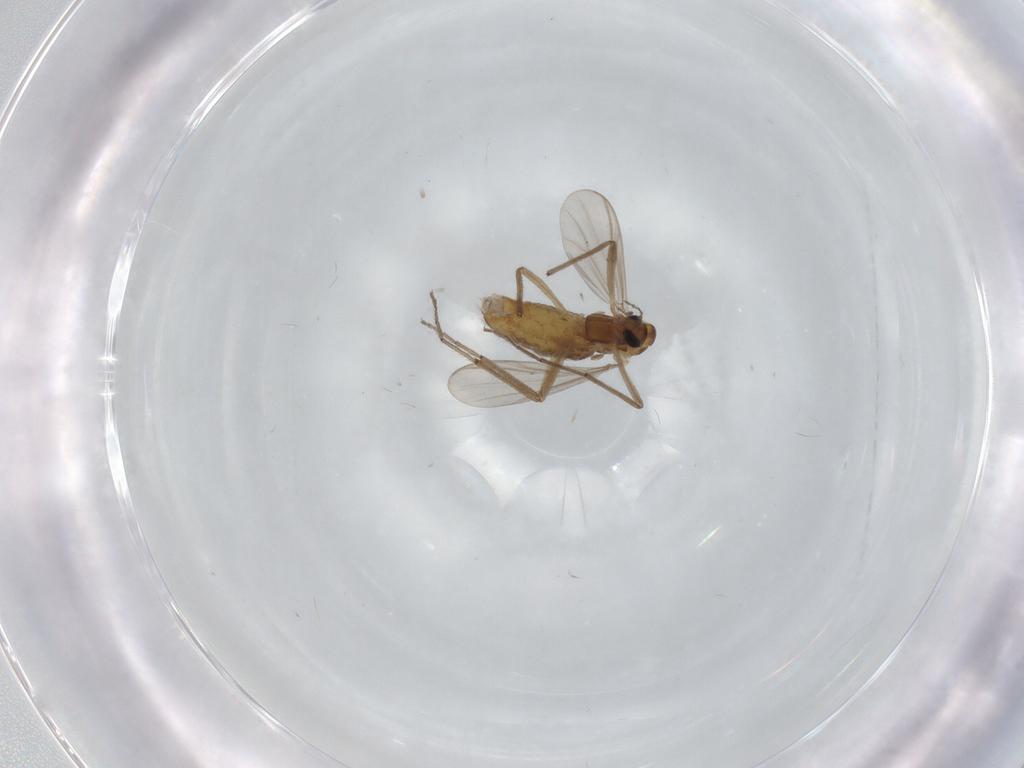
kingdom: Animalia
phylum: Arthropoda
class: Insecta
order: Diptera
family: Chironomidae
